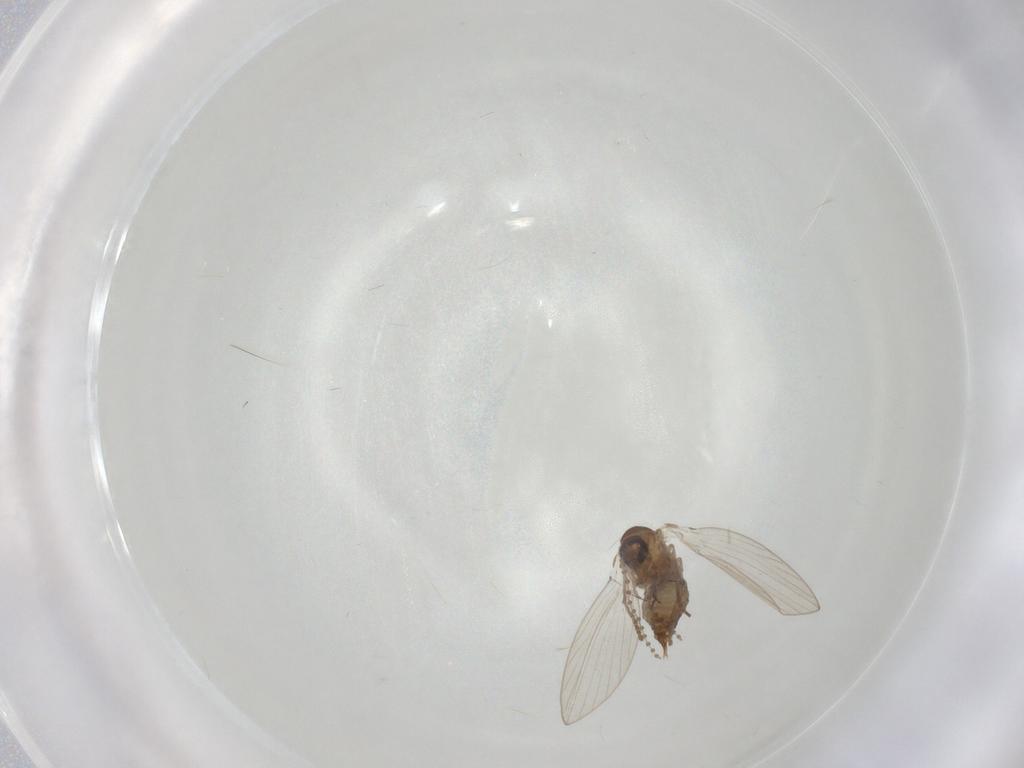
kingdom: Animalia
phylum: Arthropoda
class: Insecta
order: Diptera
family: Psychodidae
